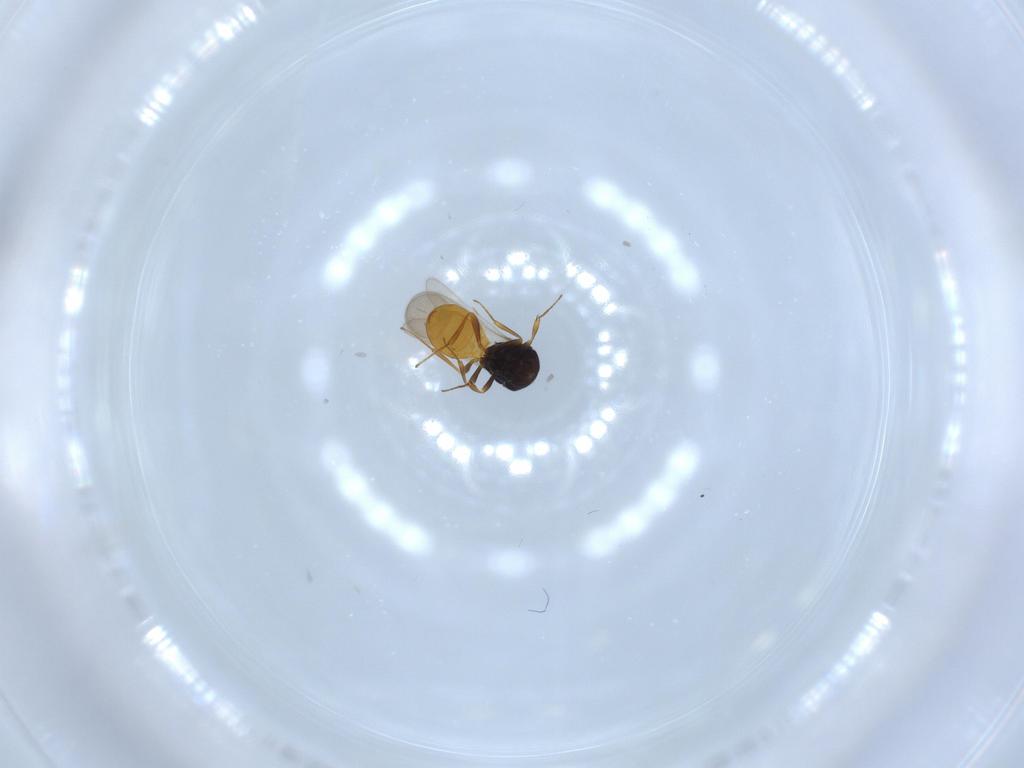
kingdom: Animalia
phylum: Arthropoda
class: Insecta
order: Hymenoptera
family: Scelionidae
